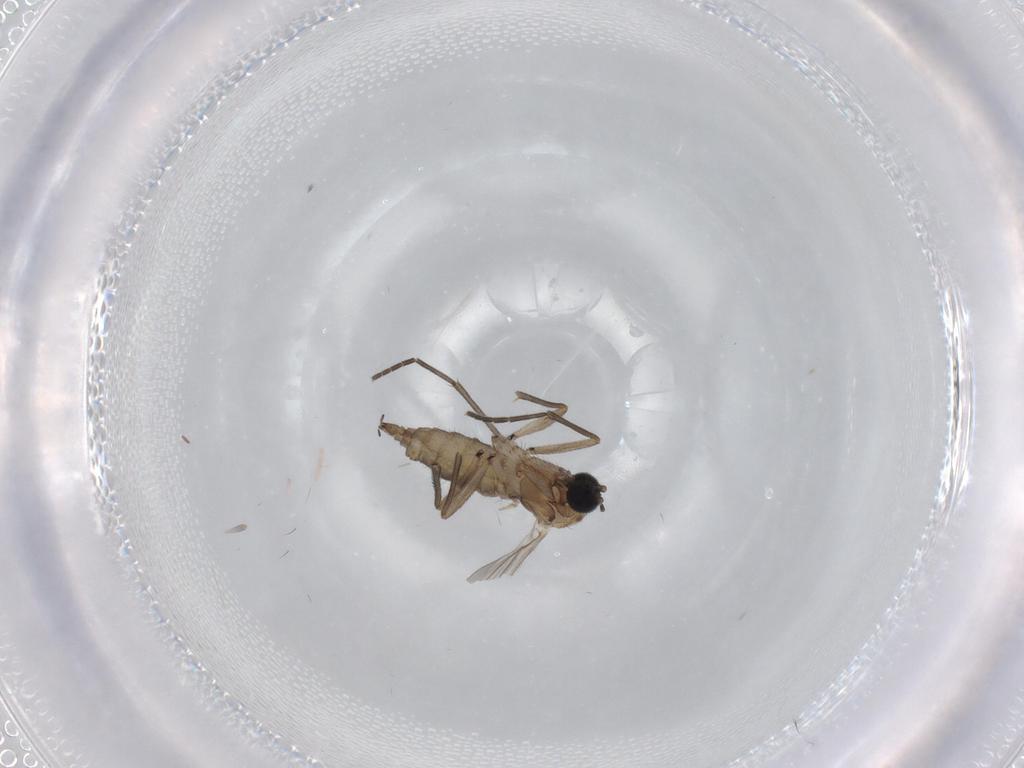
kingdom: Animalia
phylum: Arthropoda
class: Insecta
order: Diptera
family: Sciaridae
